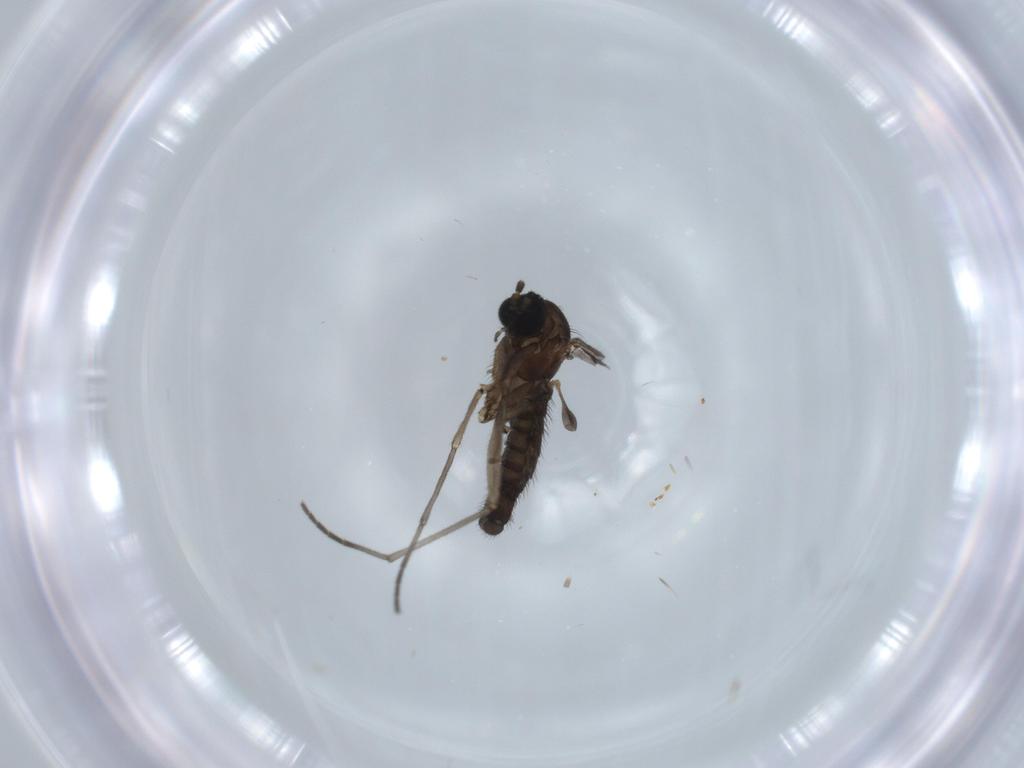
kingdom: Animalia
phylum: Arthropoda
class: Insecta
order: Diptera
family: Sciaridae
